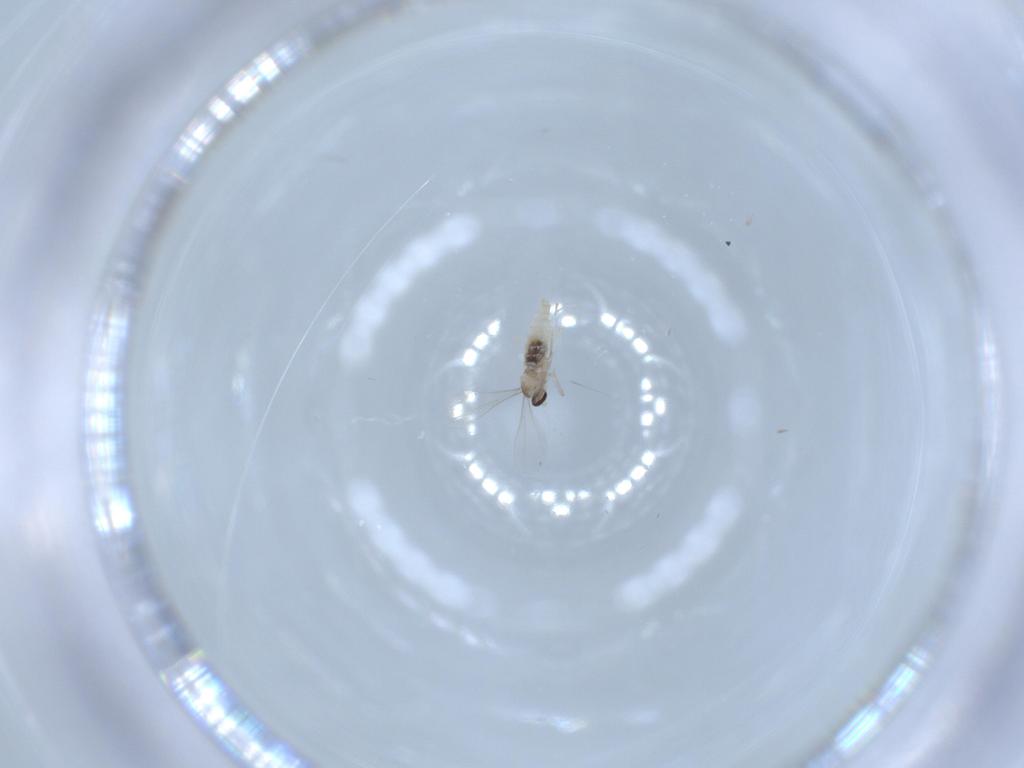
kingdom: Animalia
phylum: Arthropoda
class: Insecta
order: Diptera
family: Cecidomyiidae
